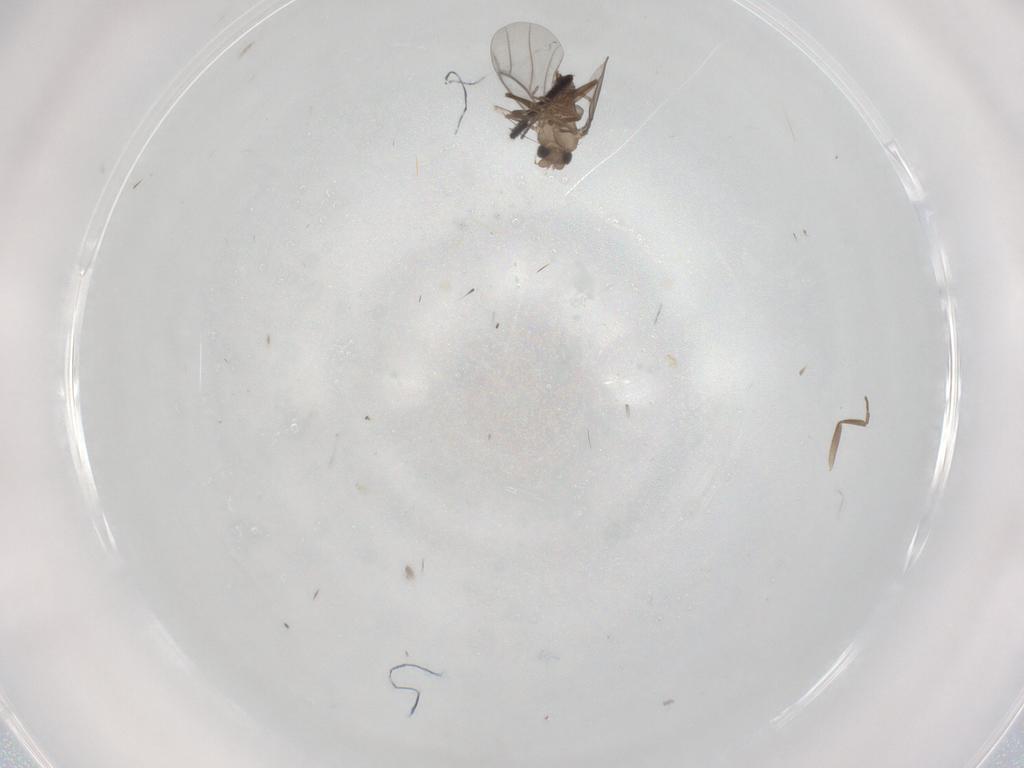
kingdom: Animalia
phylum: Arthropoda
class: Insecta
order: Diptera
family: Sciaridae
